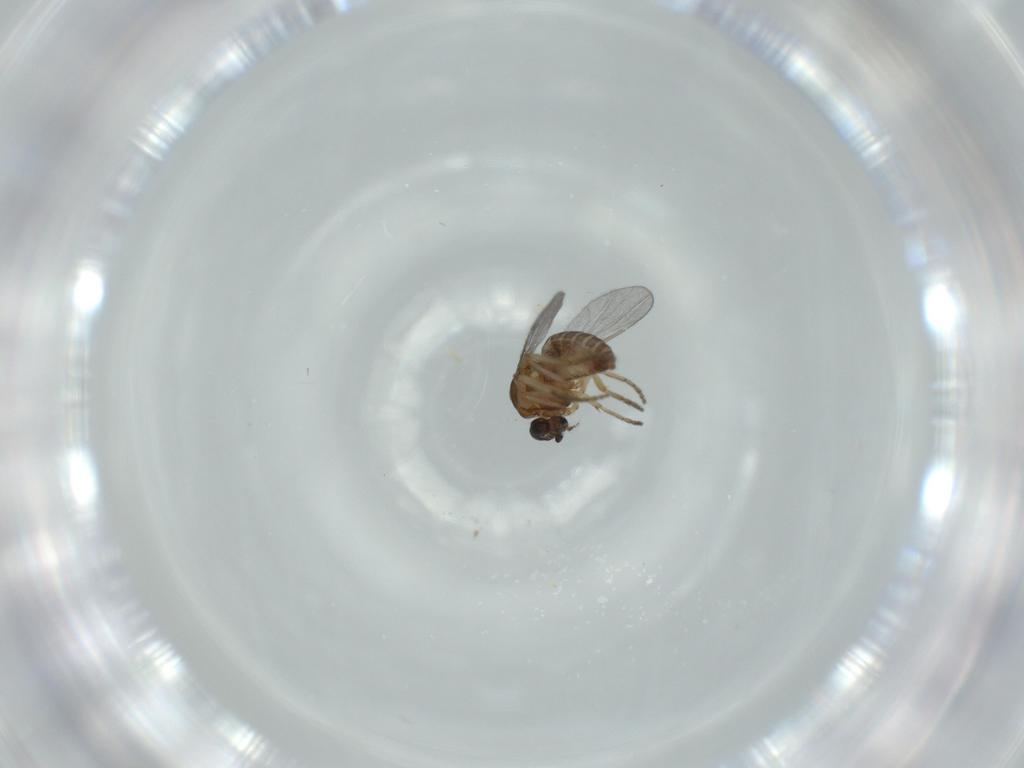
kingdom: Animalia
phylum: Arthropoda
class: Insecta
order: Diptera
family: Ceratopogonidae
